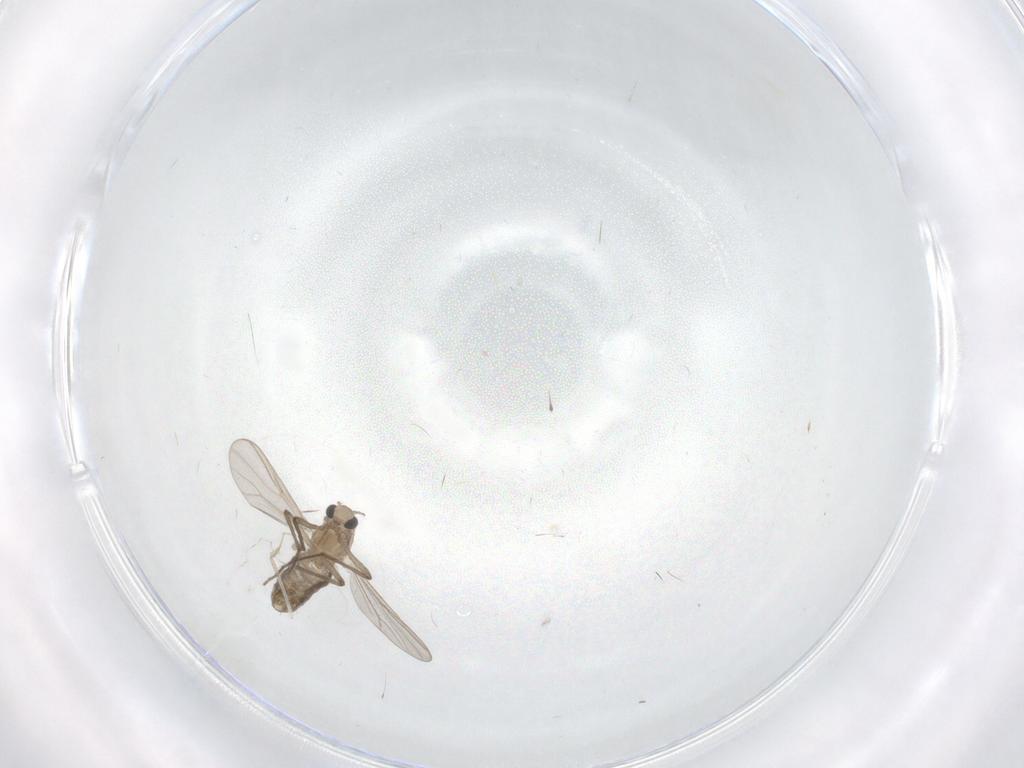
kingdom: Animalia
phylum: Arthropoda
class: Insecta
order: Diptera
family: Chironomidae
